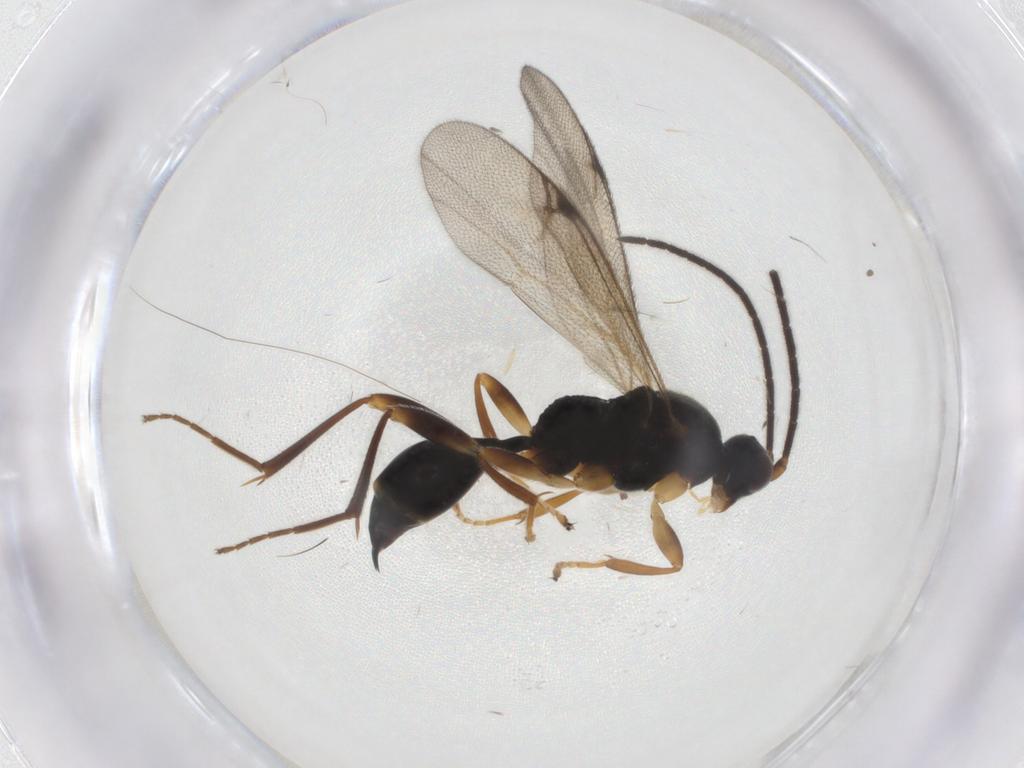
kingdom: Animalia
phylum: Arthropoda
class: Insecta
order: Hymenoptera
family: Proctotrupidae
